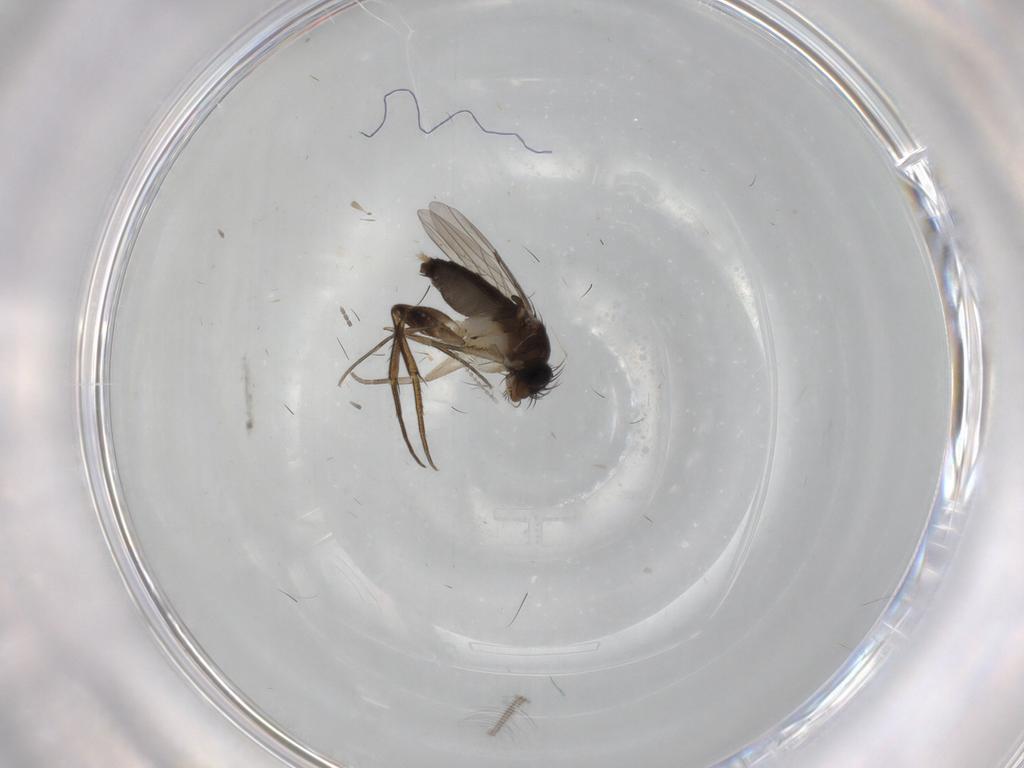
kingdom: Animalia
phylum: Arthropoda
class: Insecta
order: Diptera
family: Phoridae
